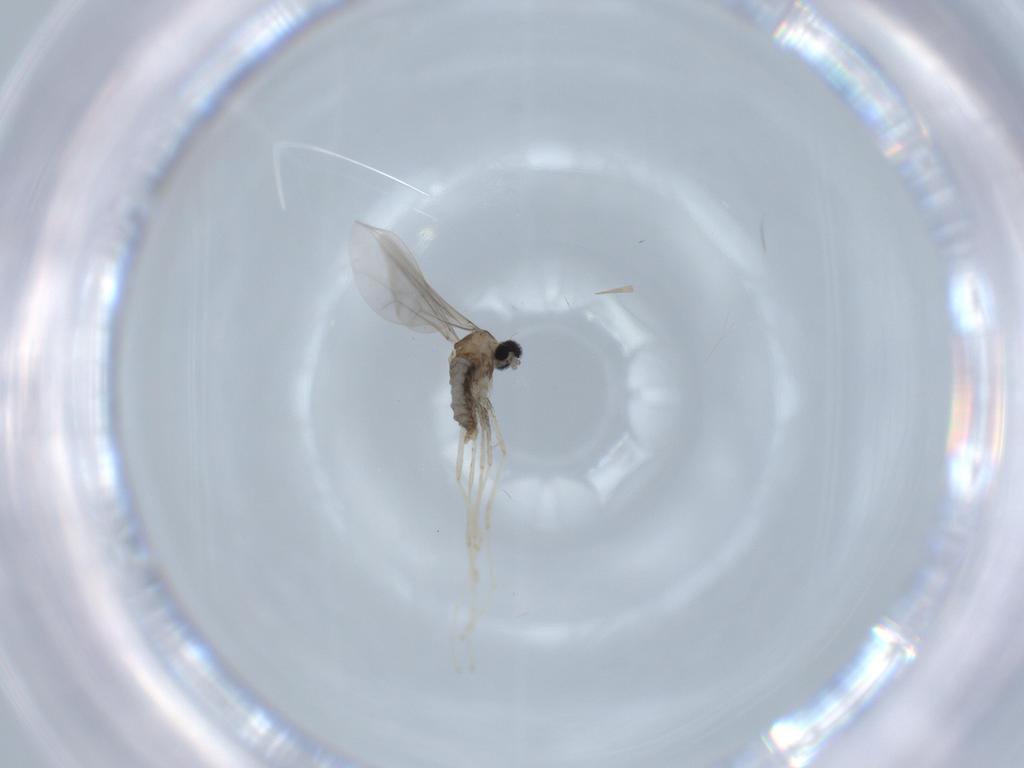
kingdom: Animalia
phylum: Arthropoda
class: Insecta
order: Diptera
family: Cecidomyiidae
